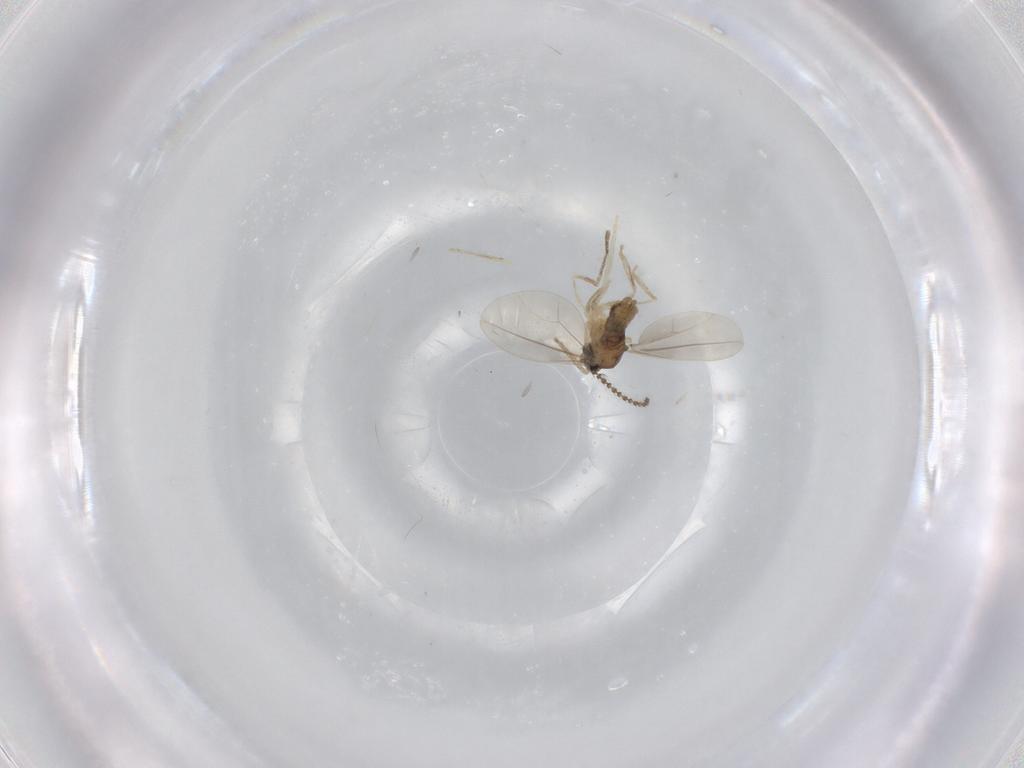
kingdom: Animalia
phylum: Arthropoda
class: Insecta
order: Diptera
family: Cecidomyiidae
